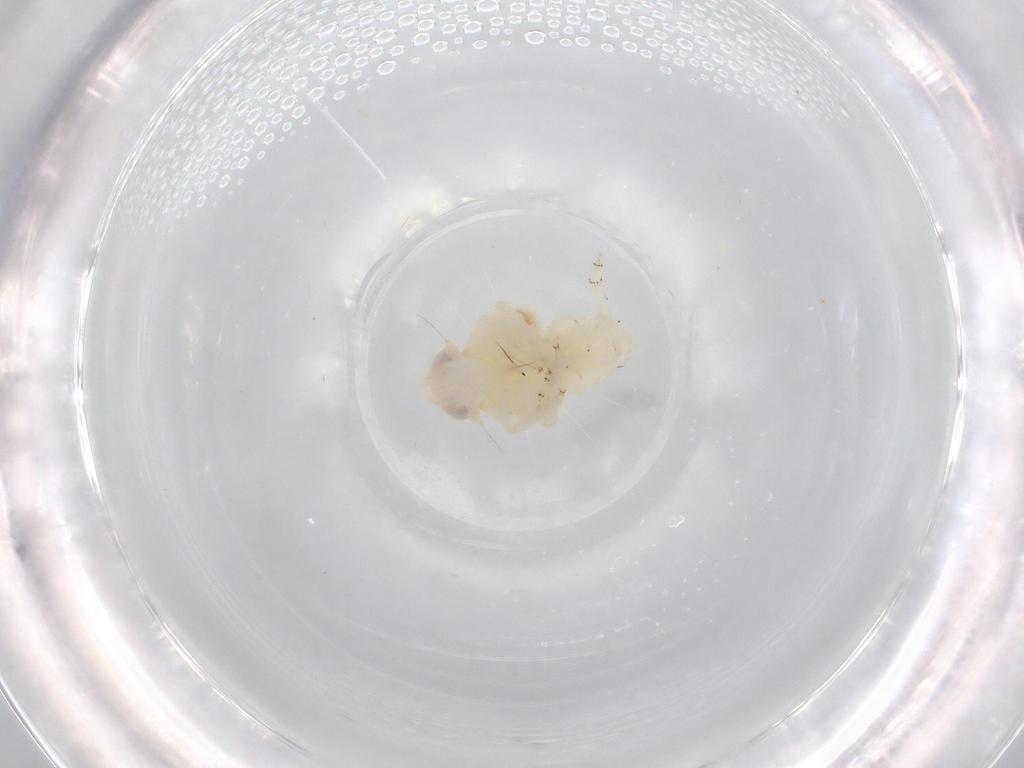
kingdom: Animalia
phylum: Arthropoda
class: Insecta
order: Hemiptera
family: Nogodinidae
